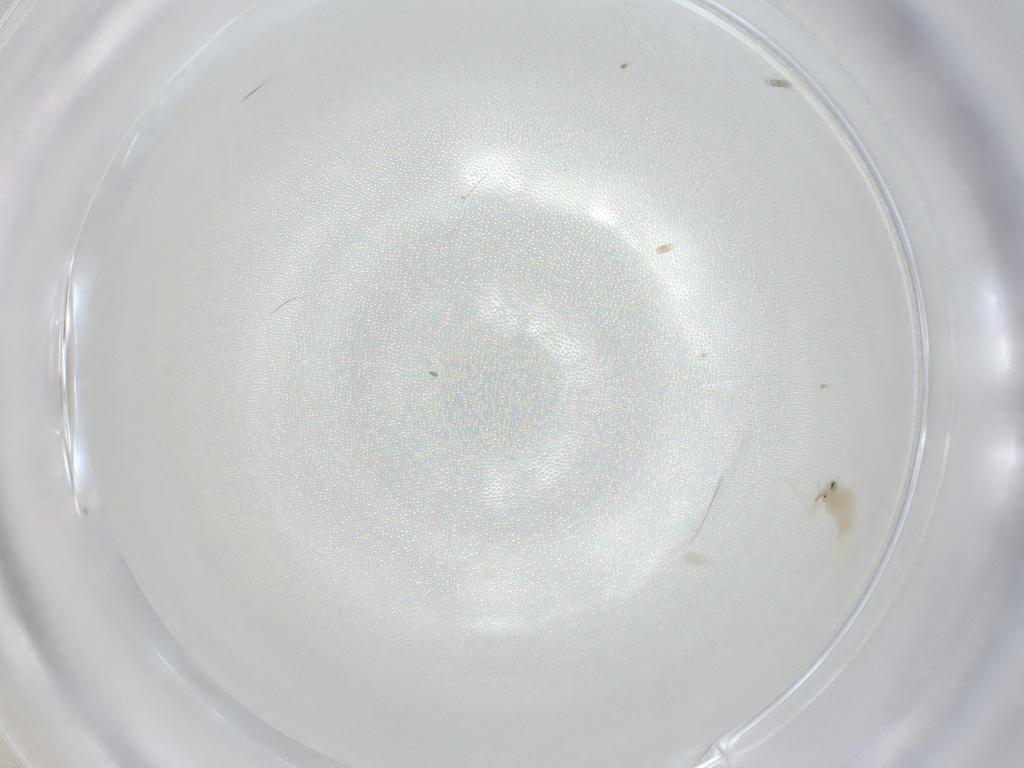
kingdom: Animalia
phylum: Arthropoda
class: Insecta
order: Hemiptera
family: Aleyrodidae
